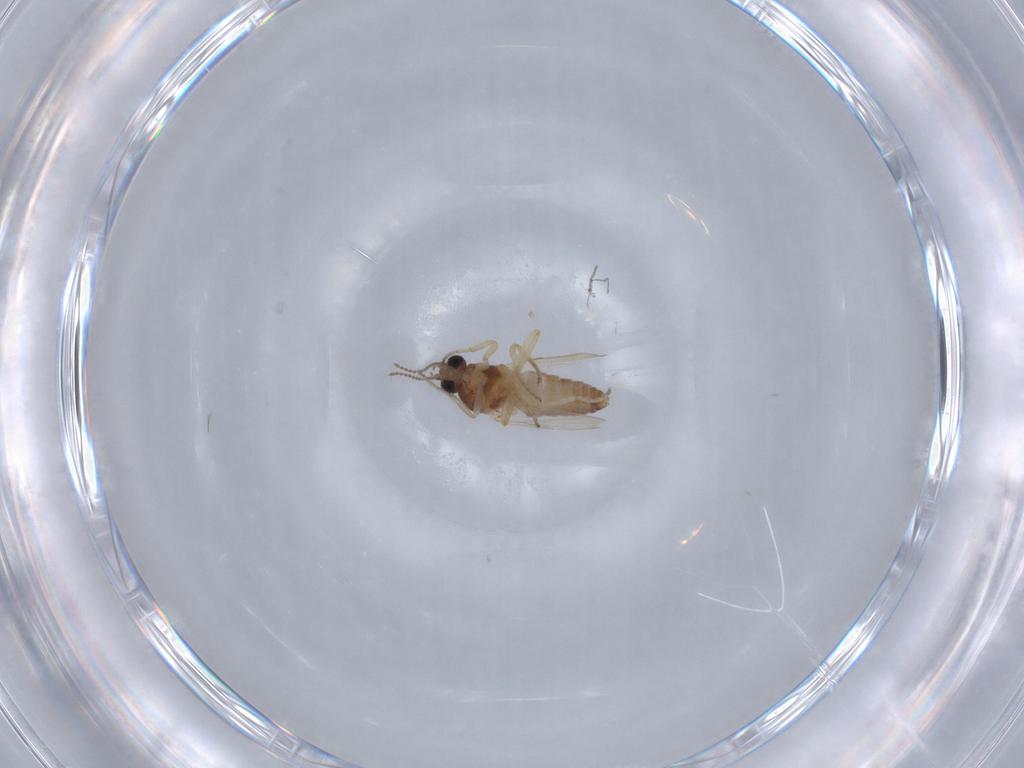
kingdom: Animalia
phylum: Arthropoda
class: Insecta
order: Diptera
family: Ceratopogonidae
